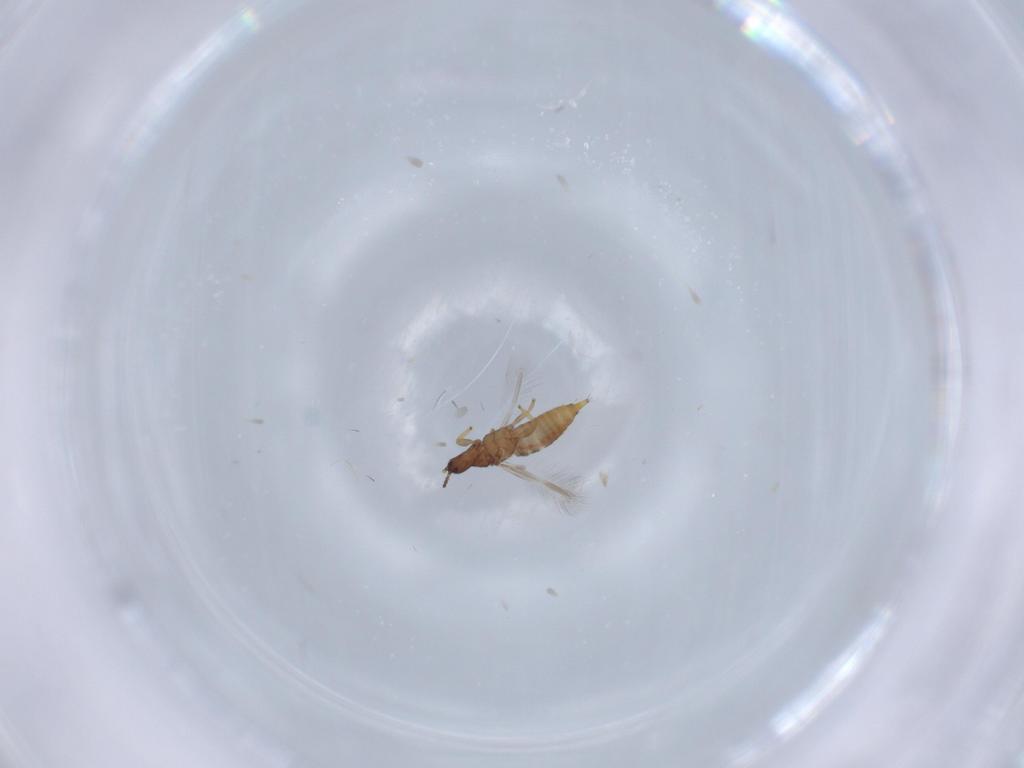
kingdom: Animalia
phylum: Arthropoda
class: Insecta
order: Thysanoptera
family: Phlaeothripidae
